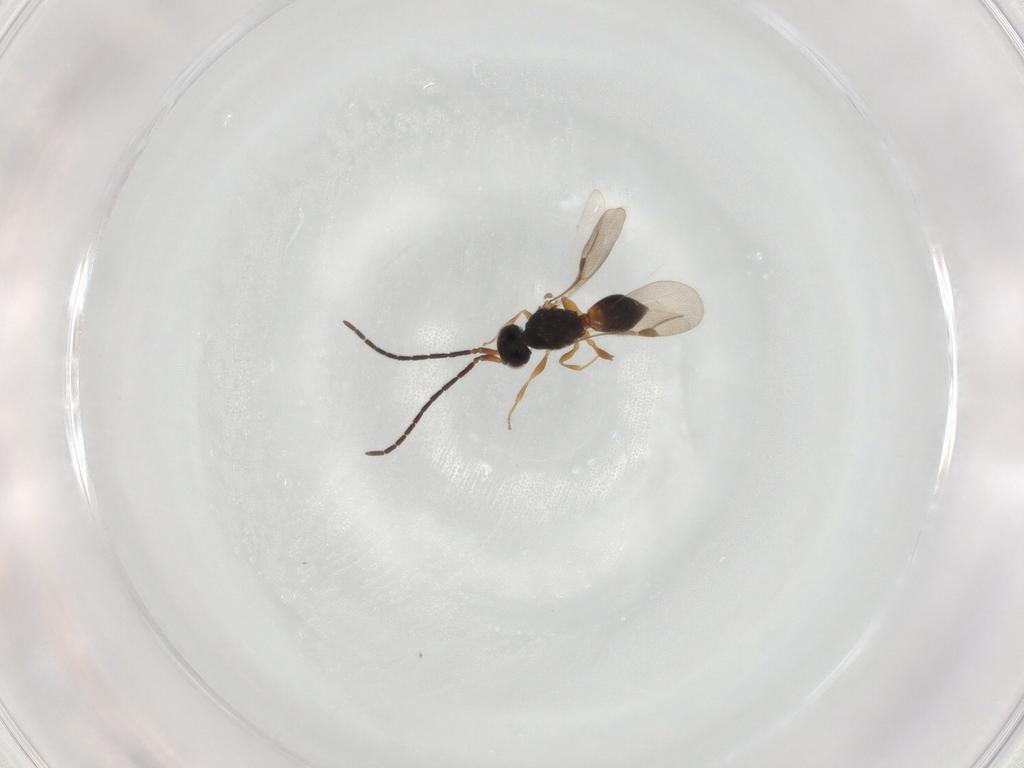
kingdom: Animalia
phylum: Arthropoda
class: Insecta
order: Hymenoptera
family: Megaspilidae
